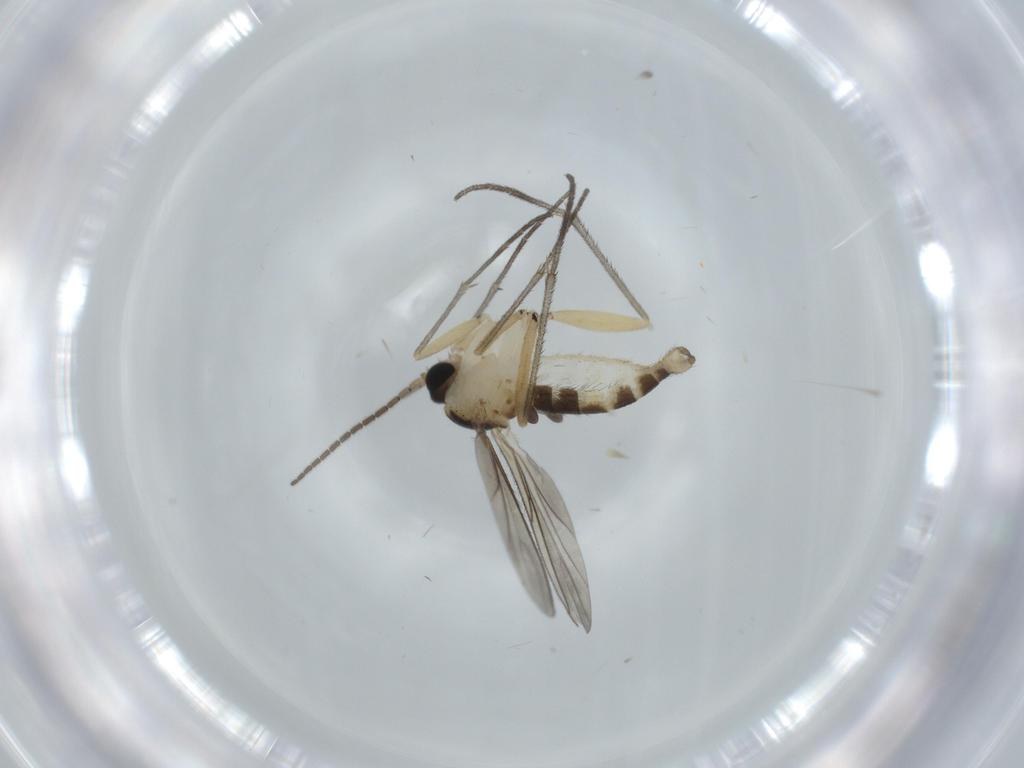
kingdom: Animalia
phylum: Arthropoda
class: Insecta
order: Diptera
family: Sciaridae
